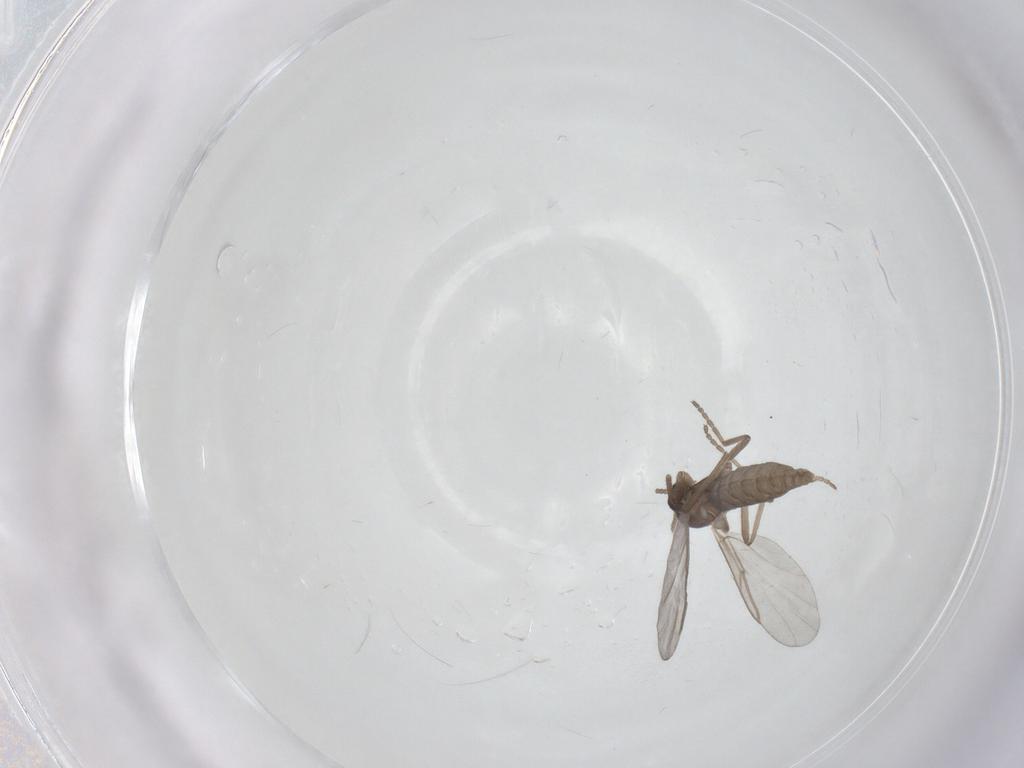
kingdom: Animalia
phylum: Arthropoda
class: Insecta
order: Diptera
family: Cecidomyiidae
